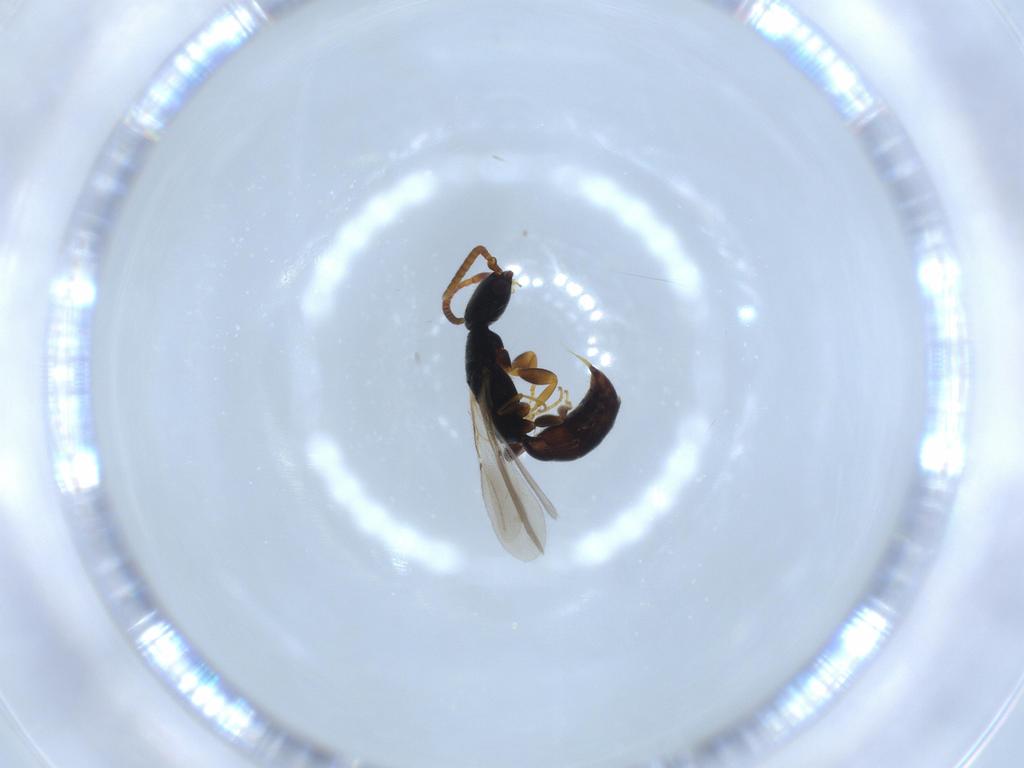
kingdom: Animalia
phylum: Arthropoda
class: Insecta
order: Hymenoptera
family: Bethylidae
